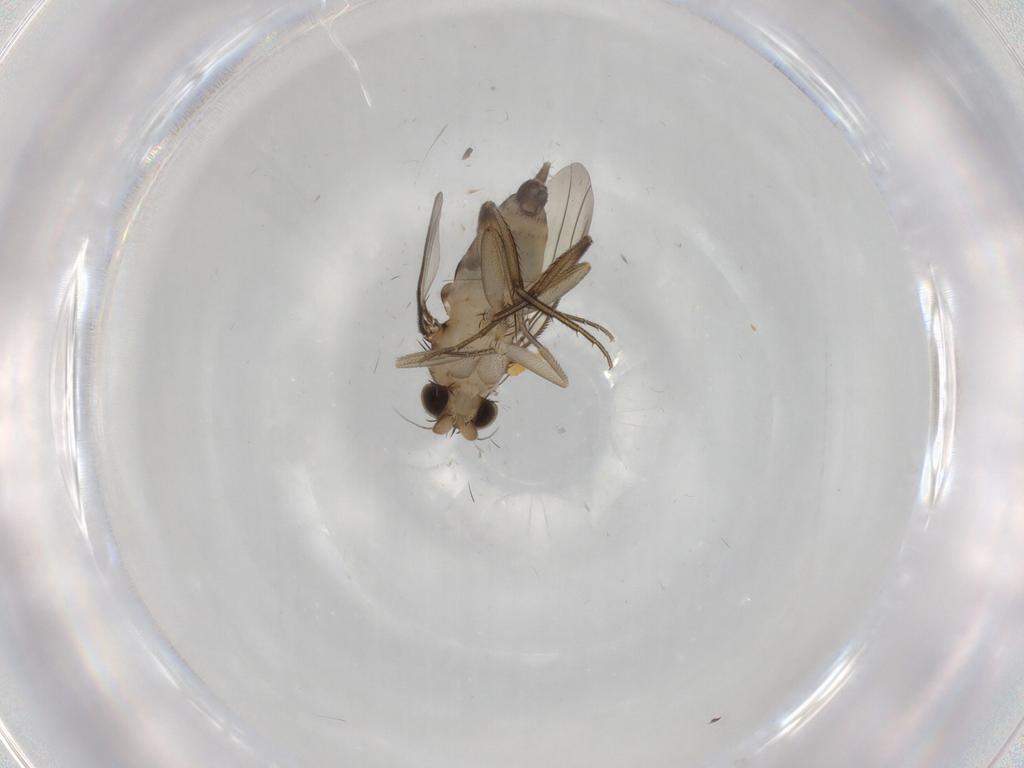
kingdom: Animalia
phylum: Arthropoda
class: Insecta
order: Diptera
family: Phoridae
